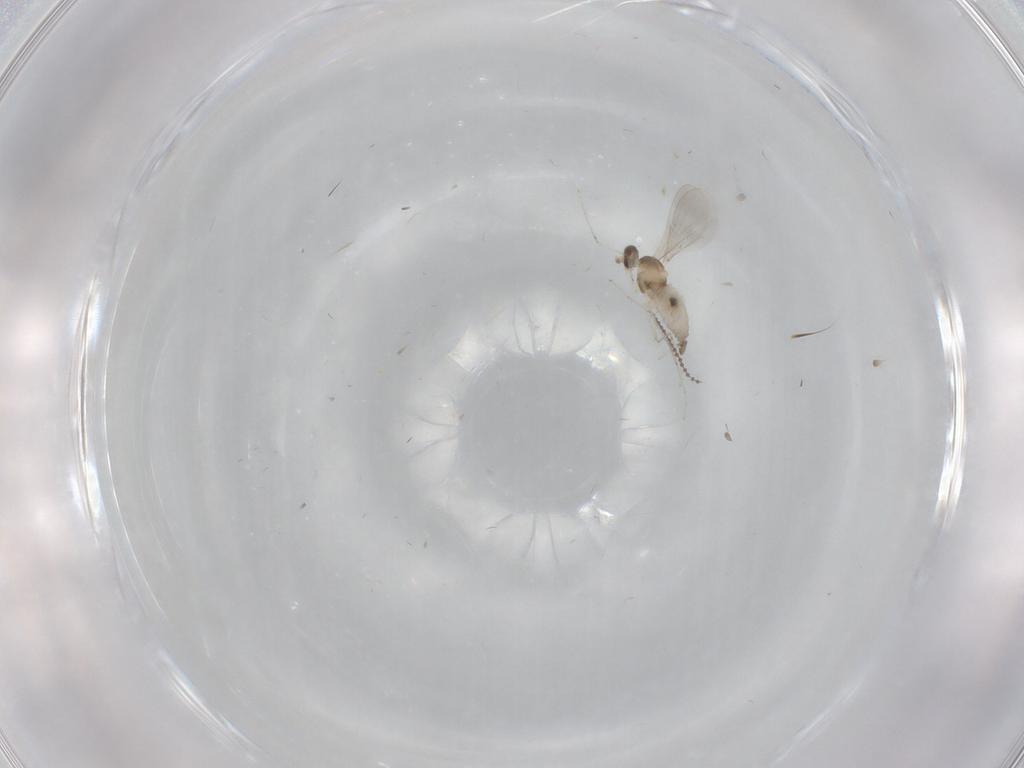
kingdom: Animalia
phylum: Arthropoda
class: Insecta
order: Diptera
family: Cecidomyiidae
